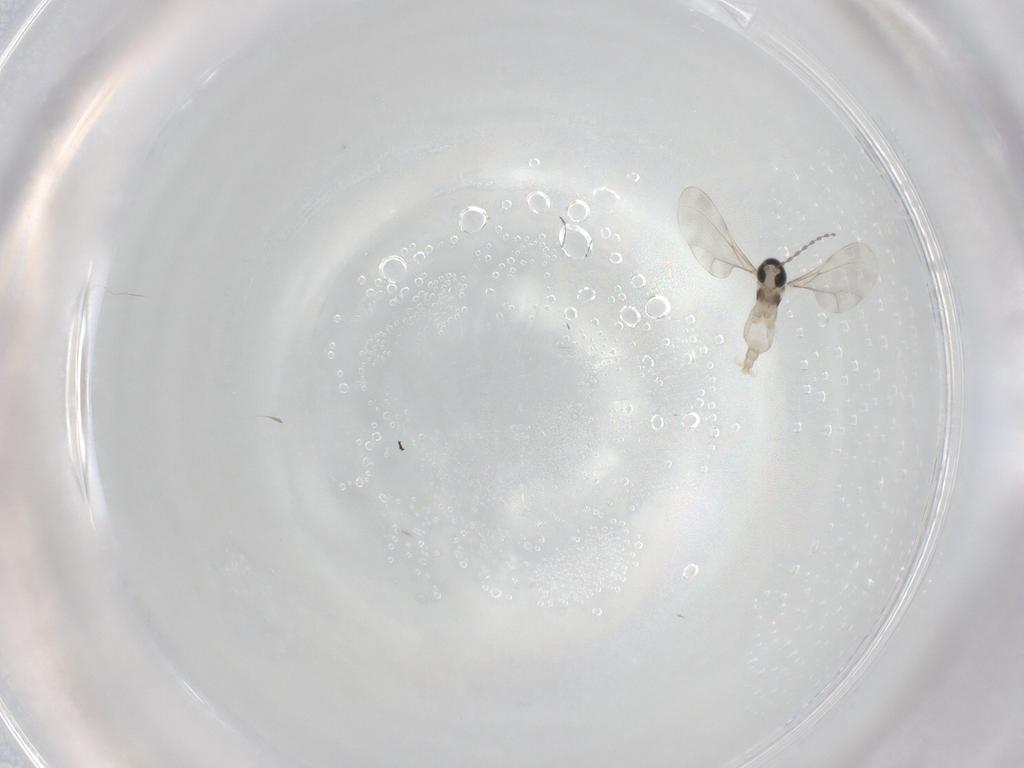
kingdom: Animalia
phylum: Arthropoda
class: Insecta
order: Diptera
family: Cecidomyiidae
